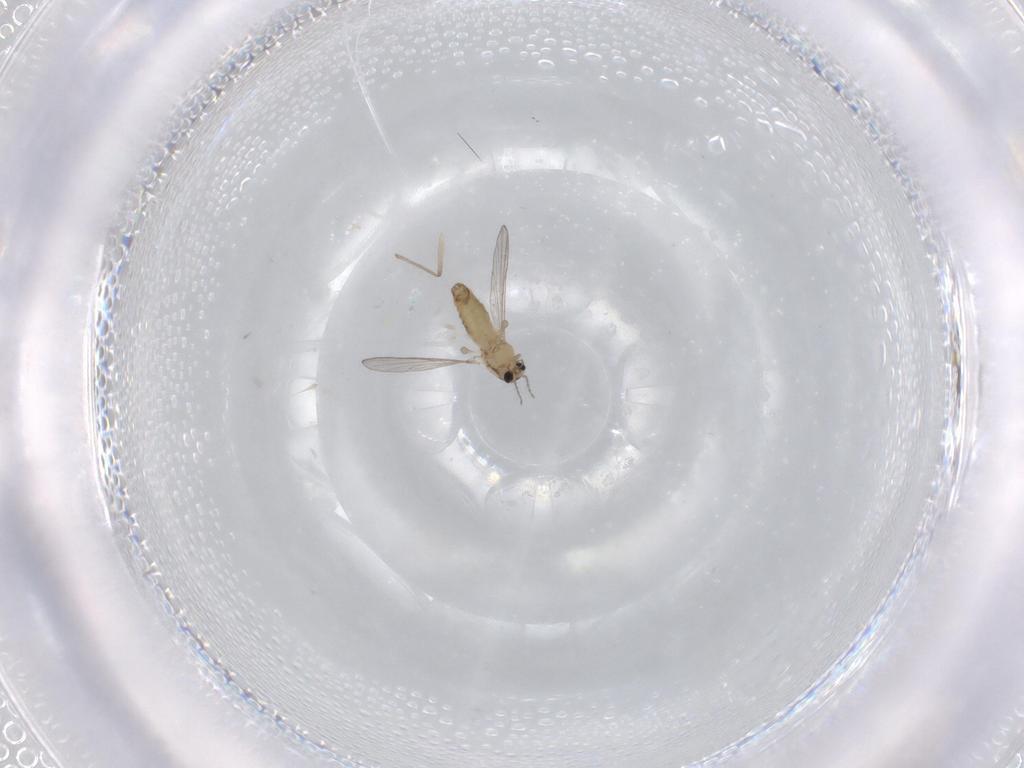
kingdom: Animalia
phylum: Arthropoda
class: Insecta
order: Diptera
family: Chironomidae
